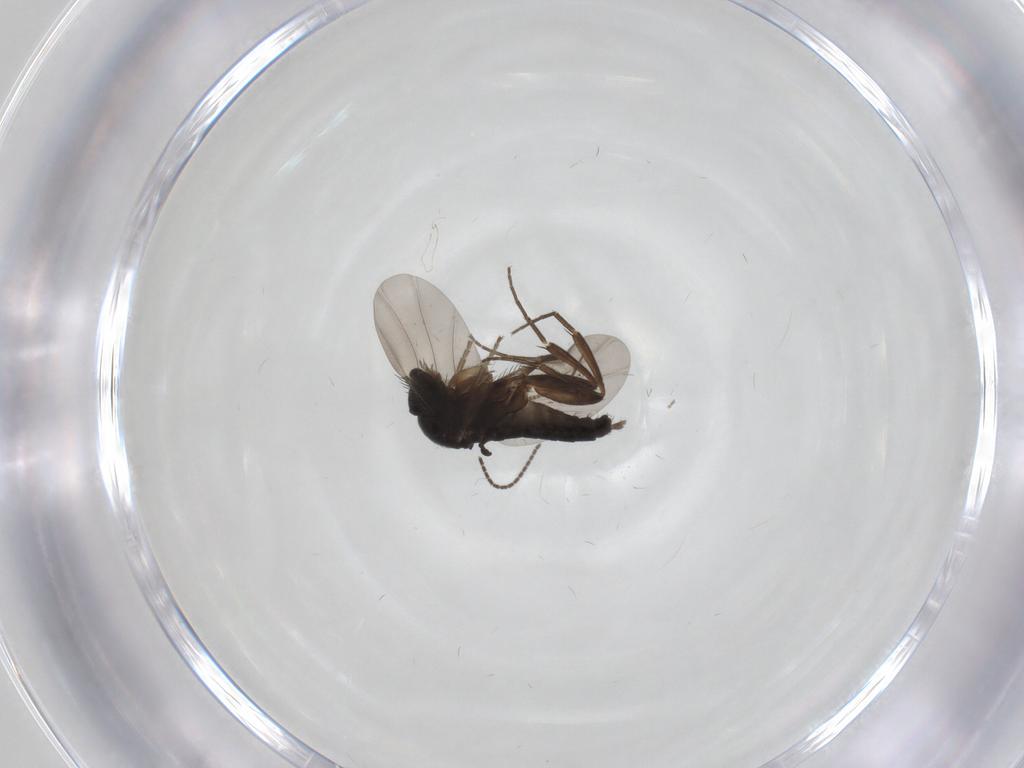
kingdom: Animalia
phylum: Arthropoda
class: Insecta
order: Diptera
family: Phoridae
